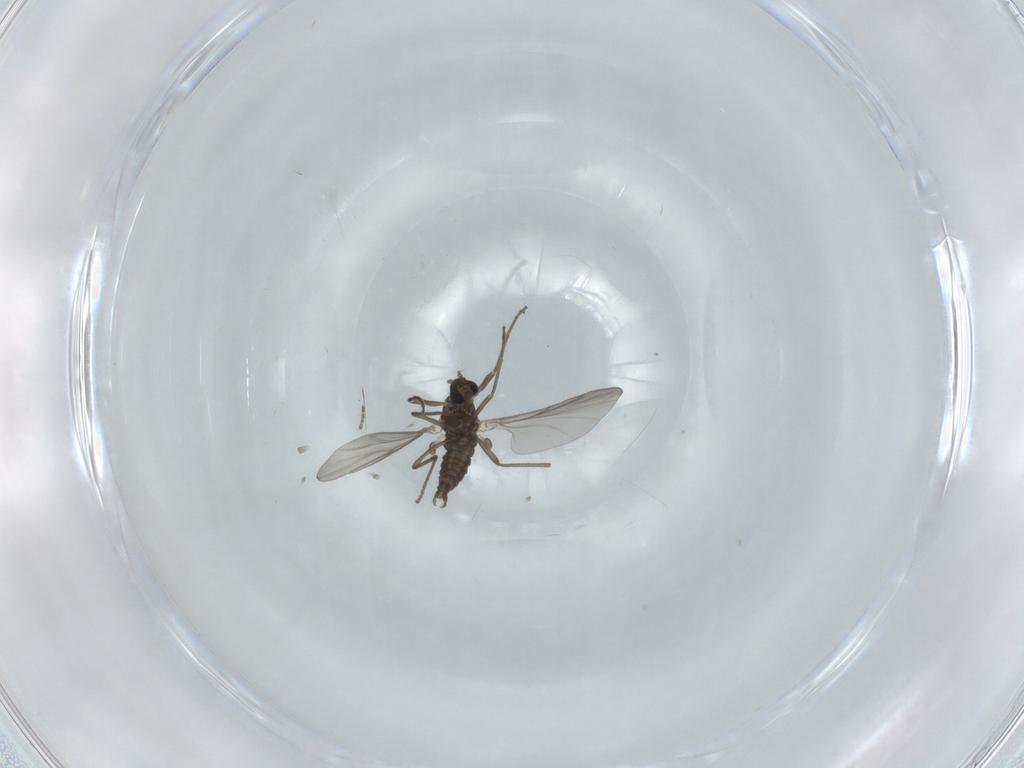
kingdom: Animalia
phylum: Arthropoda
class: Insecta
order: Diptera
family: Cecidomyiidae
